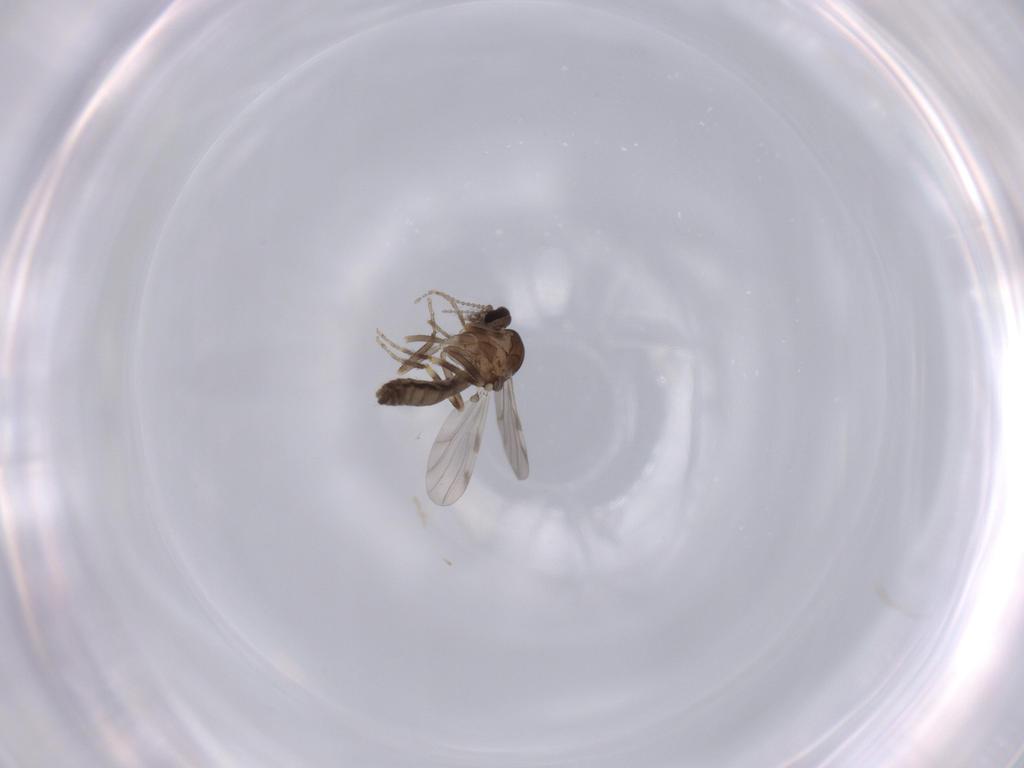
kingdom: Animalia
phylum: Arthropoda
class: Insecta
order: Diptera
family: Ceratopogonidae
